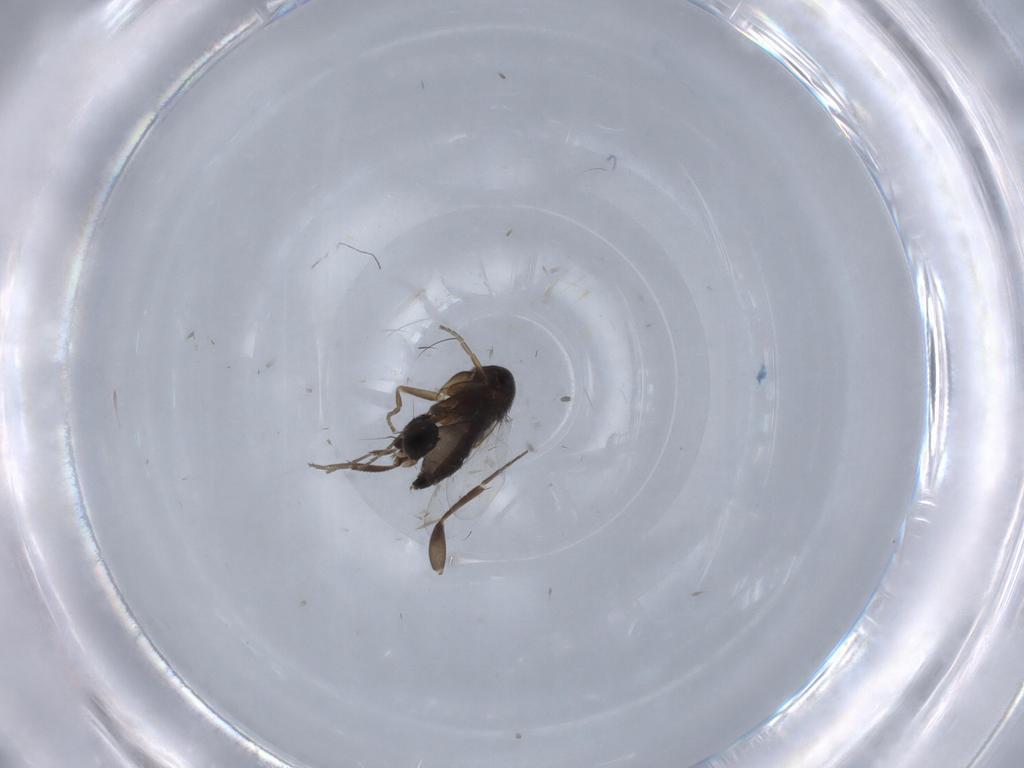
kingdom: Animalia
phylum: Arthropoda
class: Insecta
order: Diptera
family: Phoridae
